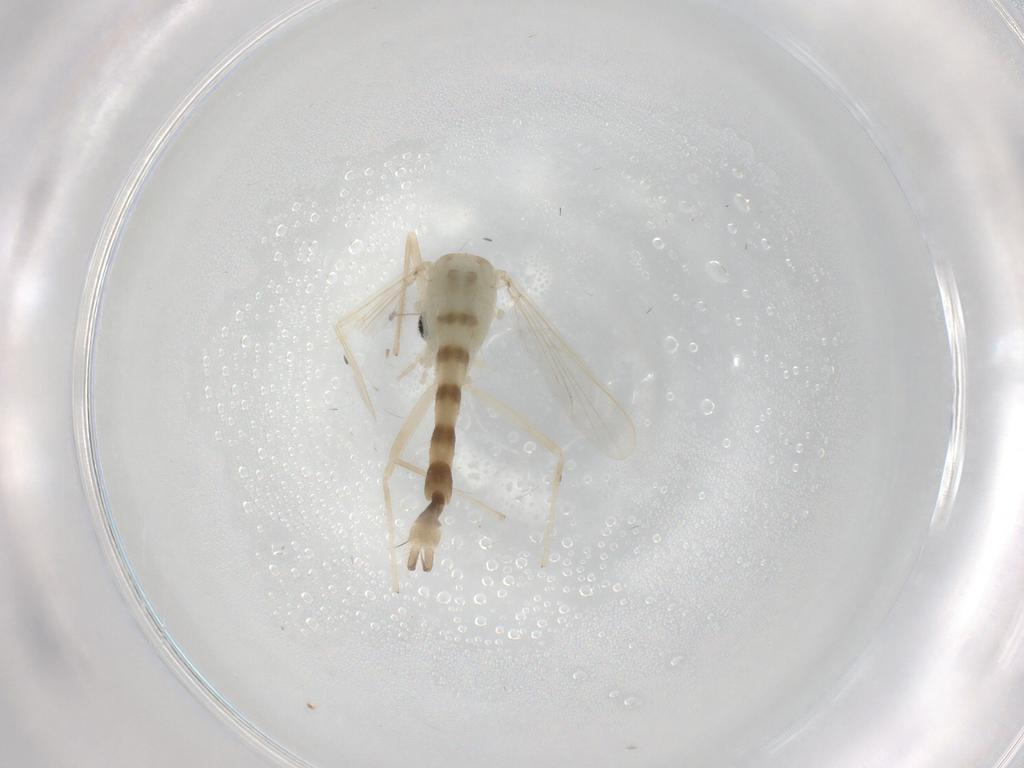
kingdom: Animalia
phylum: Arthropoda
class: Insecta
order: Diptera
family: Chironomidae
